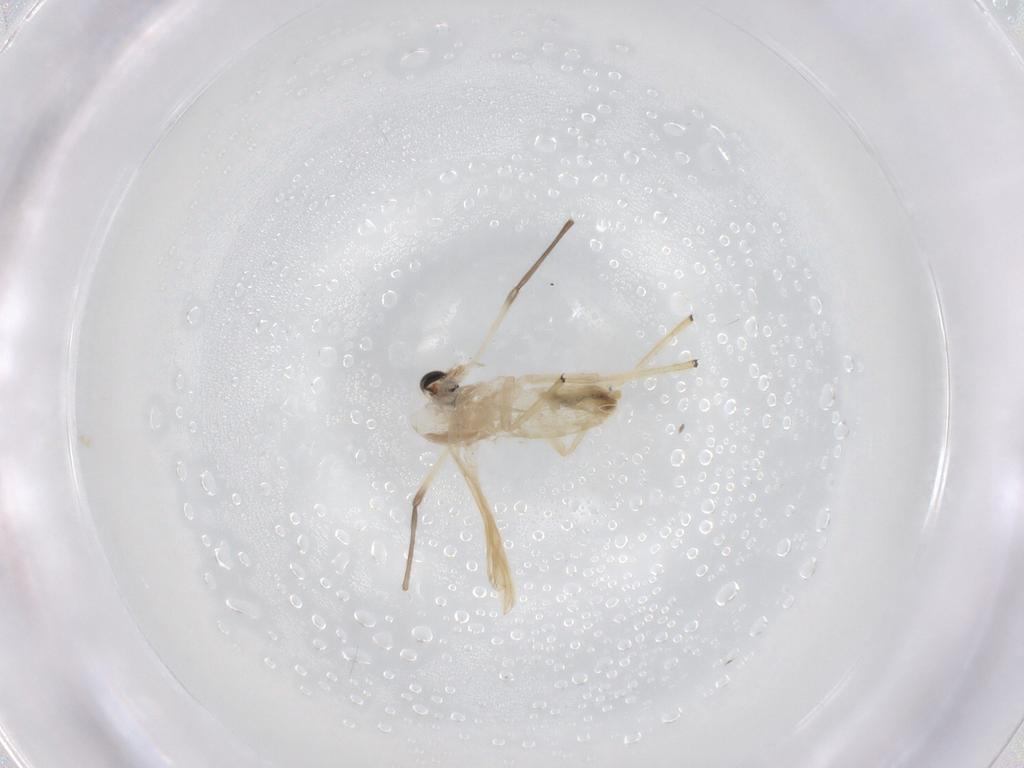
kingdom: Animalia
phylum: Arthropoda
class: Insecta
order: Diptera
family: Chironomidae
